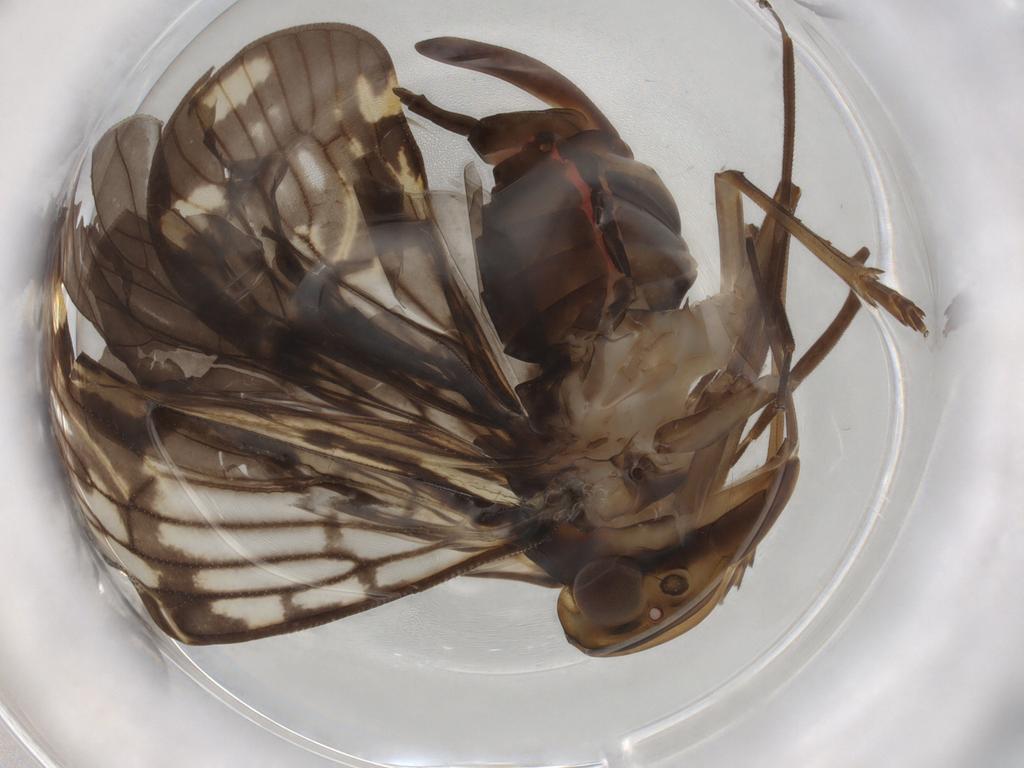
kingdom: Animalia
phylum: Arthropoda
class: Insecta
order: Hemiptera
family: Cixiidae
